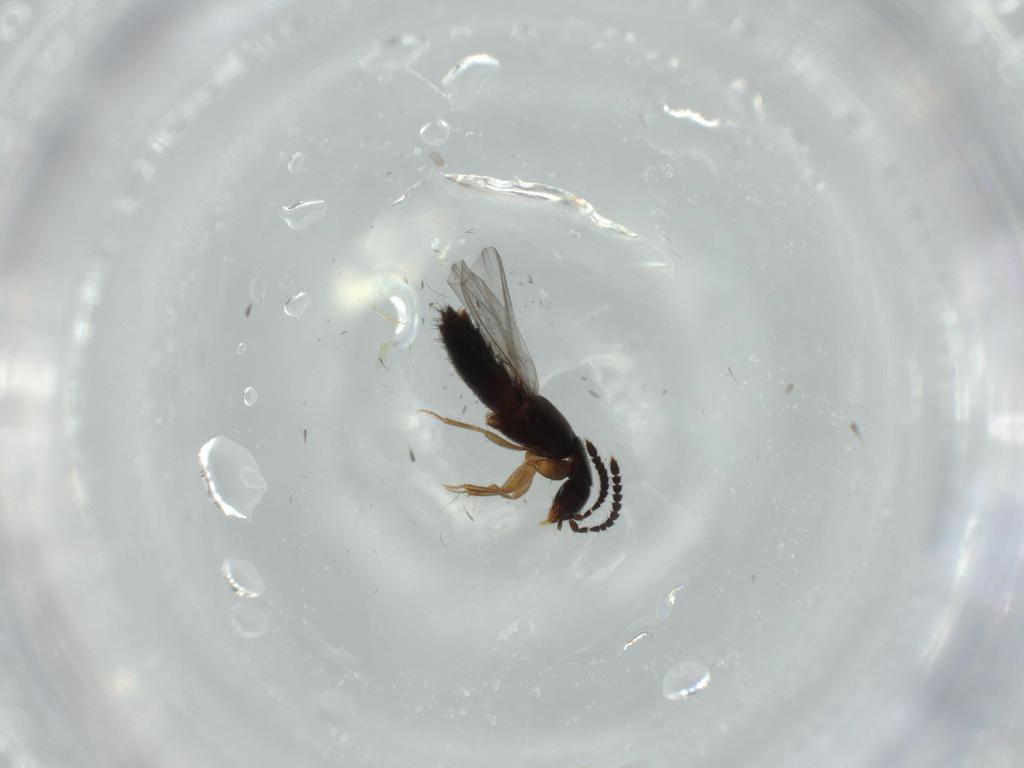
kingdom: Animalia
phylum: Arthropoda
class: Insecta
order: Coleoptera
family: Staphylinidae
